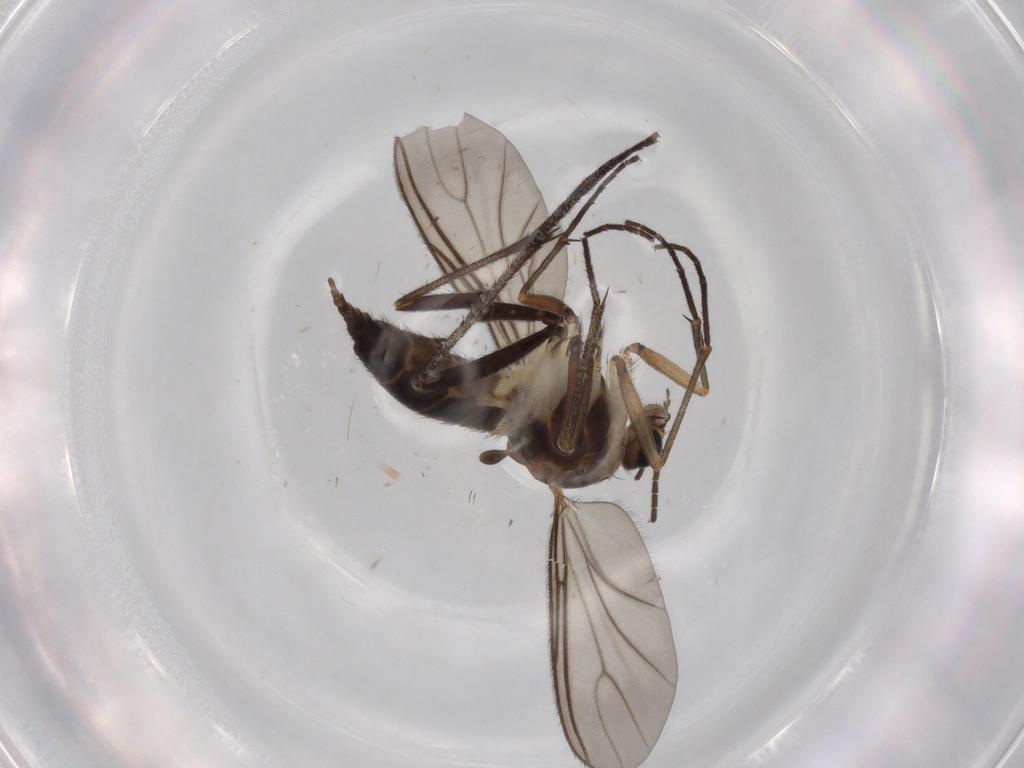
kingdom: Animalia
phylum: Arthropoda
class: Insecta
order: Diptera
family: Sciaridae
